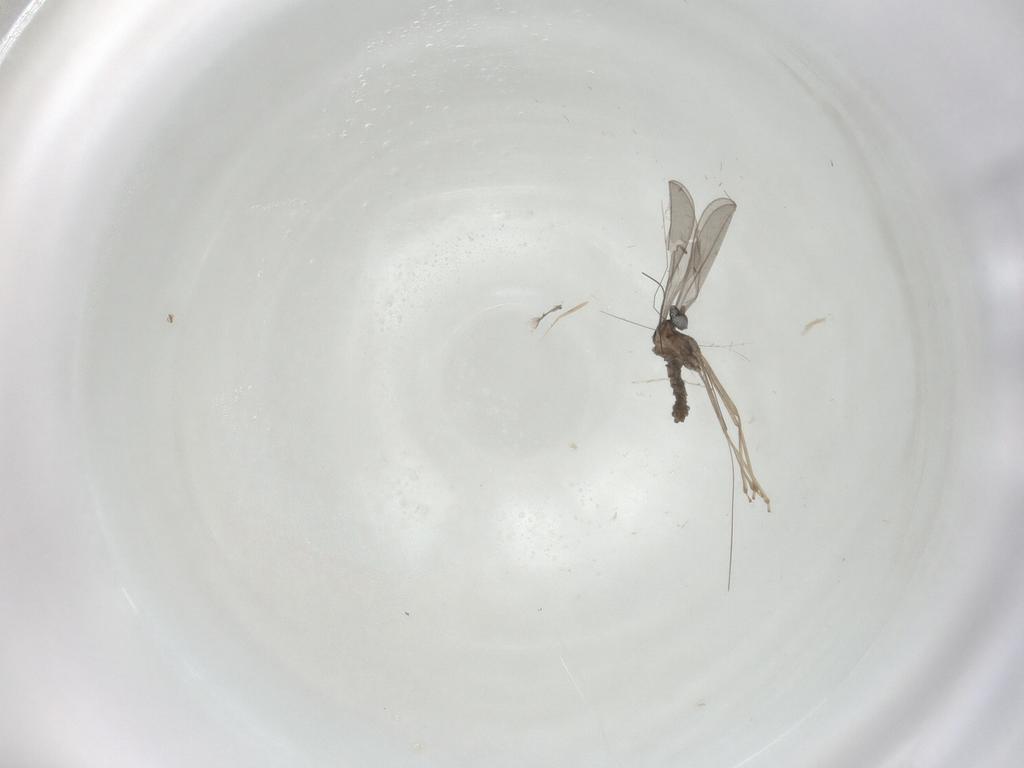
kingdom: Animalia
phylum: Arthropoda
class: Insecta
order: Diptera
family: Cecidomyiidae
